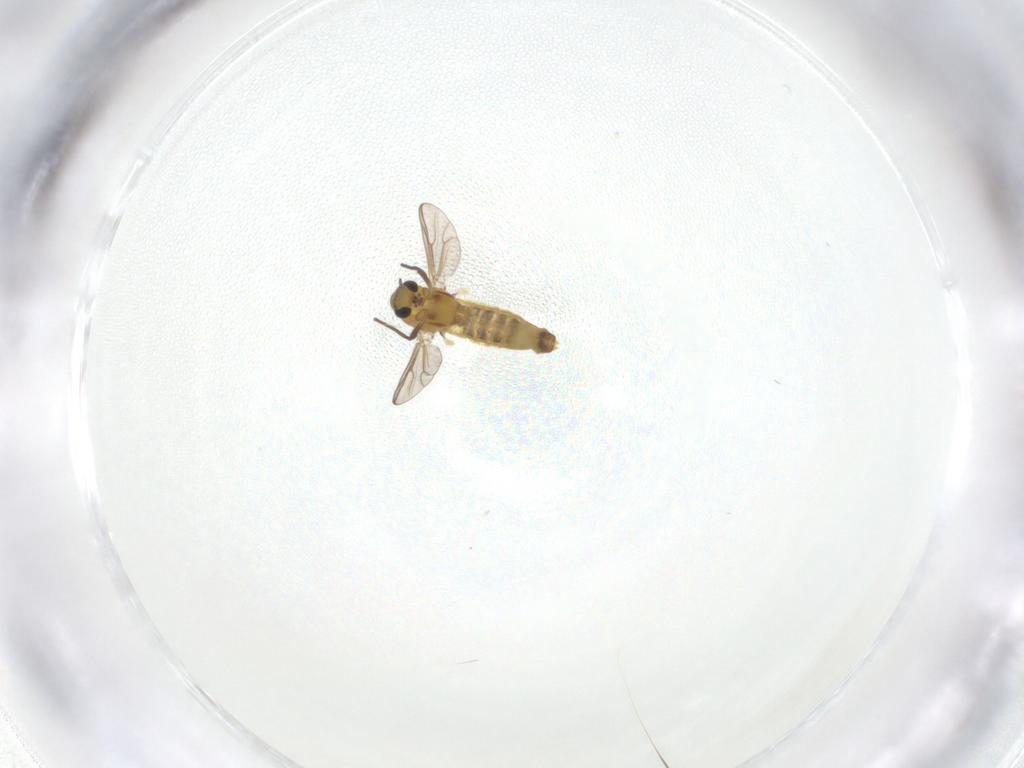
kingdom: Animalia
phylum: Arthropoda
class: Insecta
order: Diptera
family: Chironomidae
